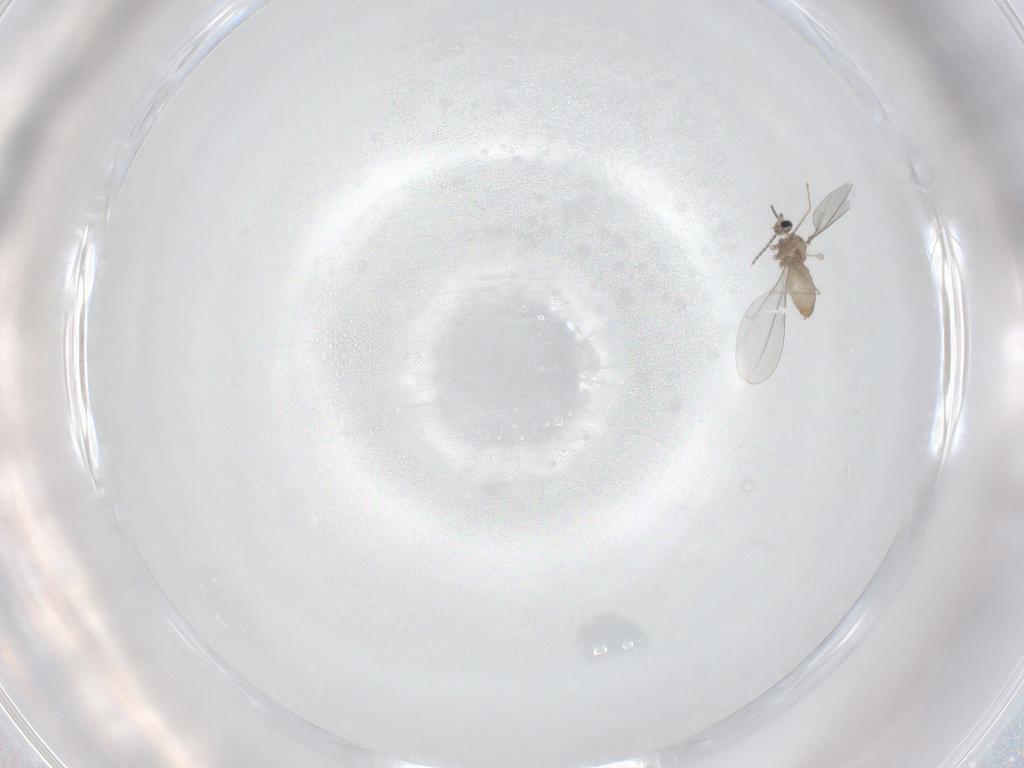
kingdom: Animalia
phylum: Arthropoda
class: Insecta
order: Diptera
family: Cecidomyiidae
